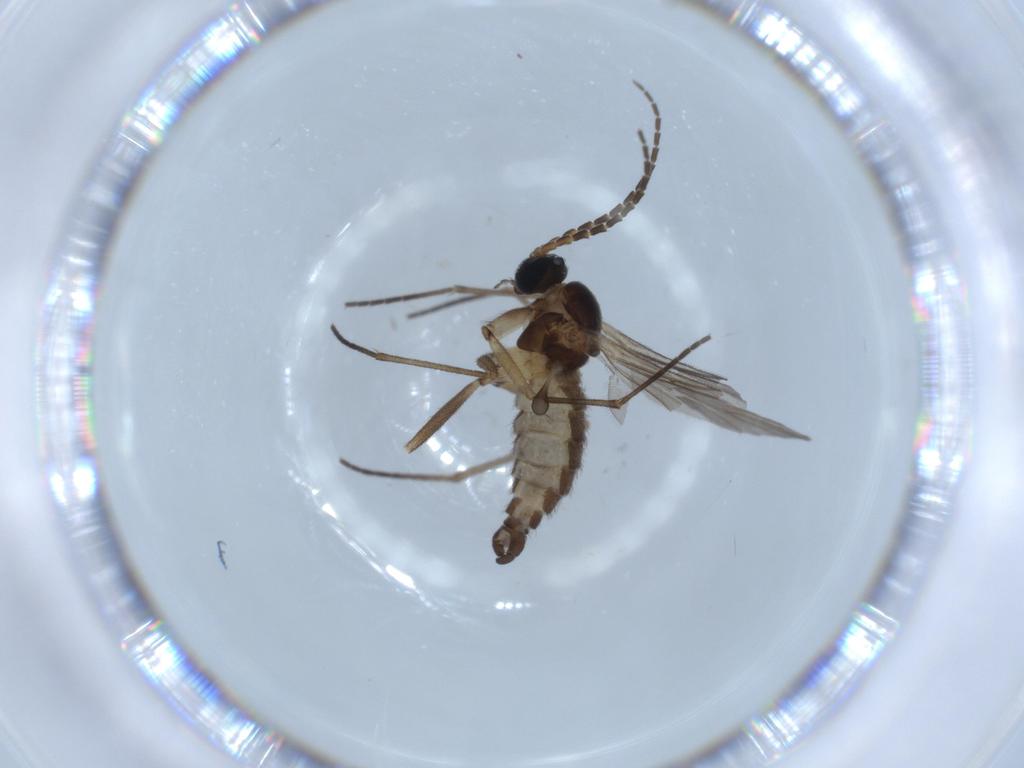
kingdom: Animalia
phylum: Arthropoda
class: Insecta
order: Diptera
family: Sciaridae
